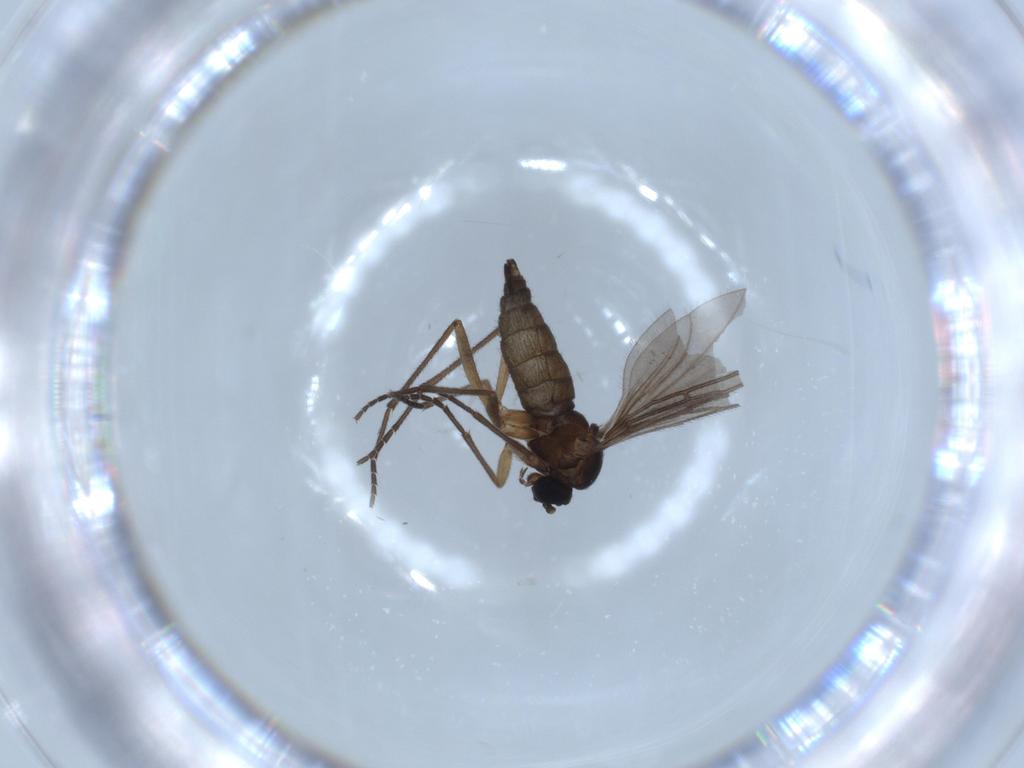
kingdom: Animalia
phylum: Arthropoda
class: Insecta
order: Diptera
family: Sciaridae
